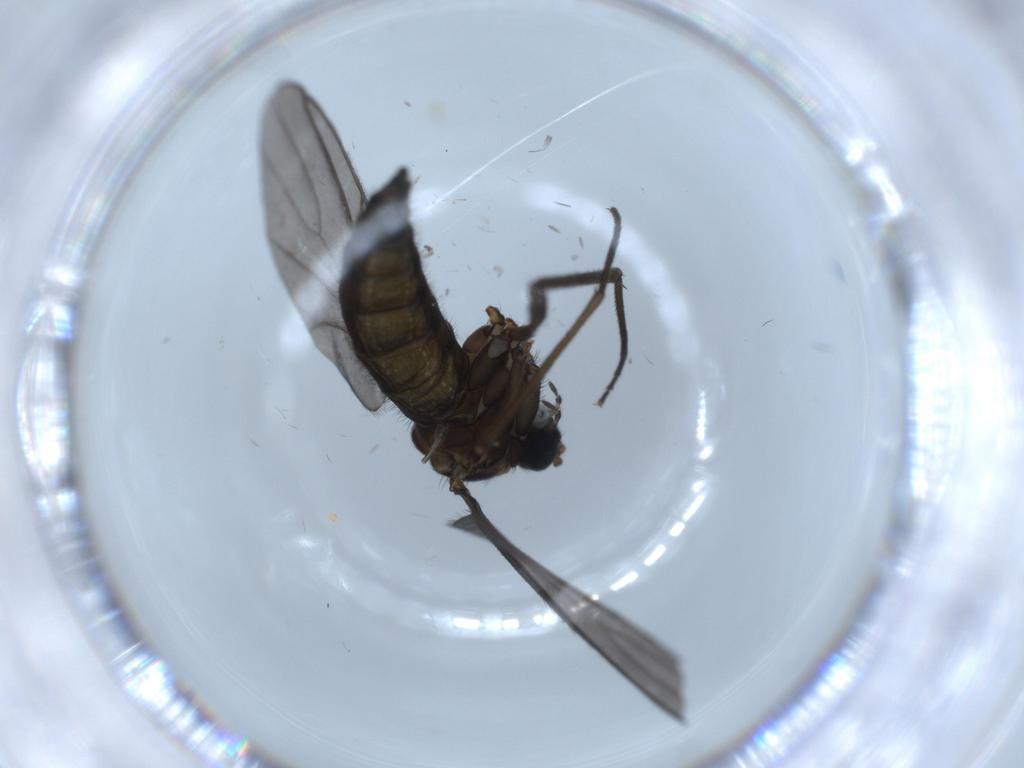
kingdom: Animalia
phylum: Arthropoda
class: Insecta
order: Diptera
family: Sciaridae
